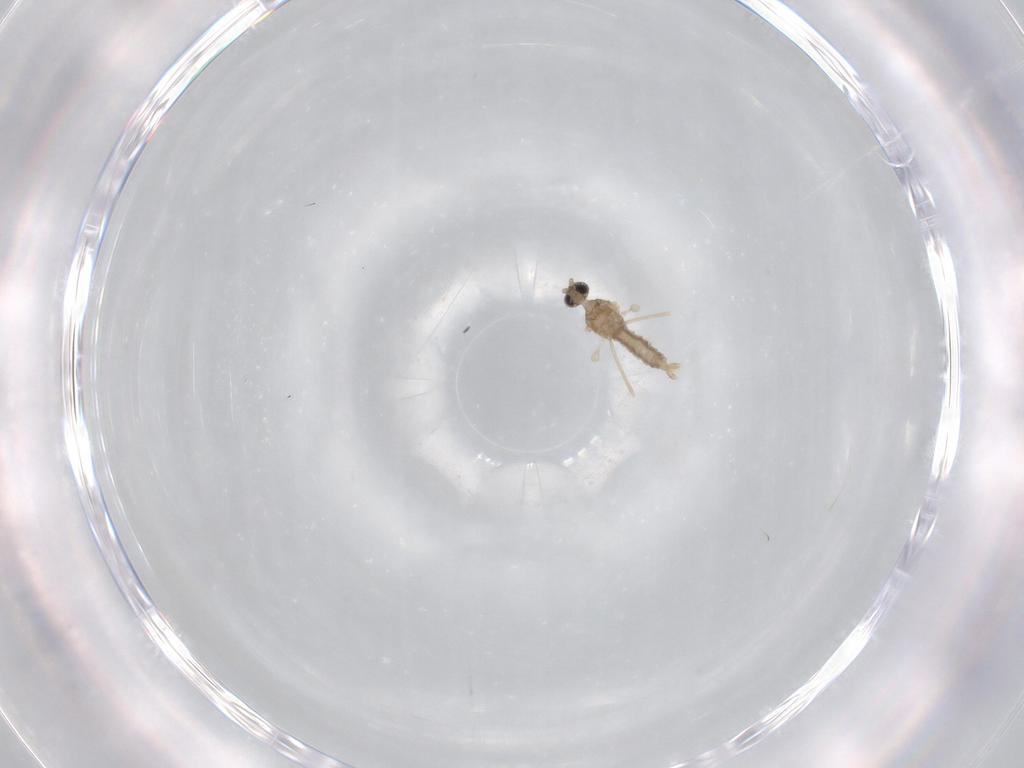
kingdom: Animalia
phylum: Arthropoda
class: Insecta
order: Diptera
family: Cecidomyiidae
